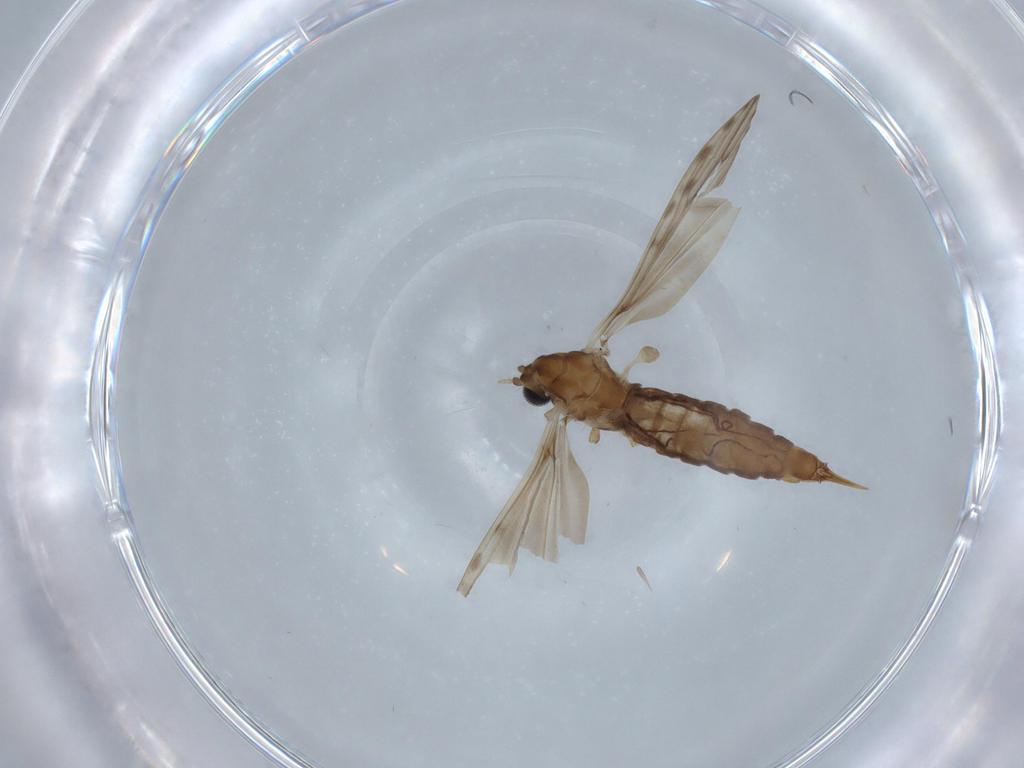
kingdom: Animalia
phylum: Arthropoda
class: Insecta
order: Diptera
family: Limoniidae
